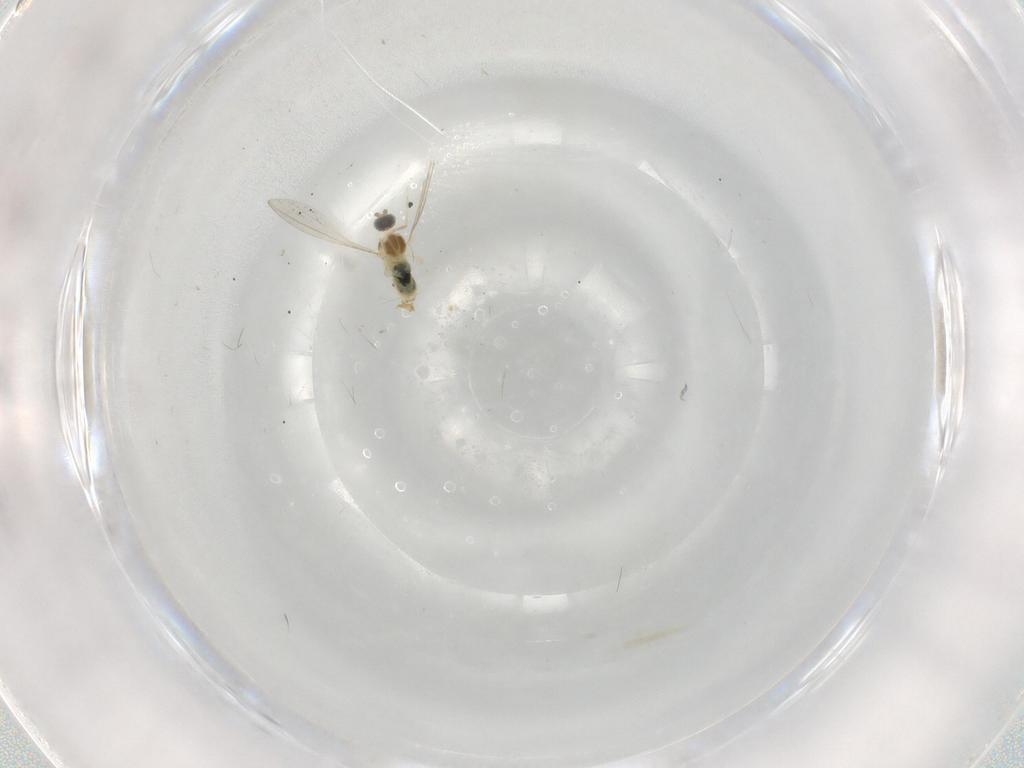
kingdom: Animalia
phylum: Arthropoda
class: Insecta
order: Diptera
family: Cecidomyiidae
